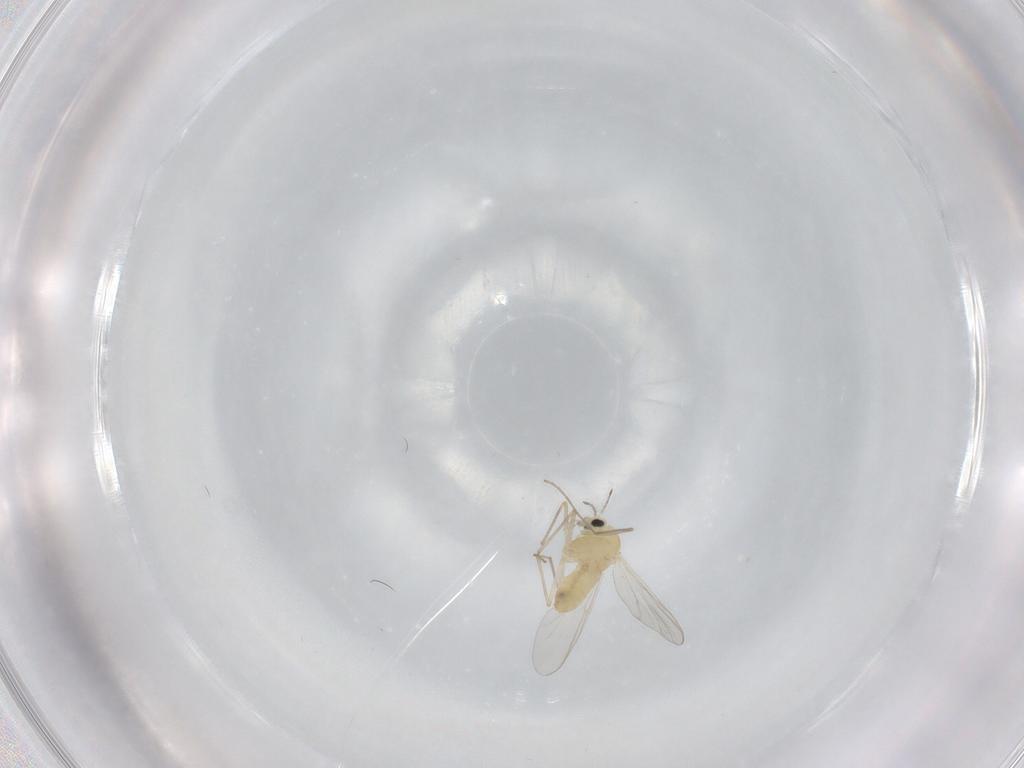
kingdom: Animalia
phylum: Arthropoda
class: Insecta
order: Diptera
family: Chironomidae
